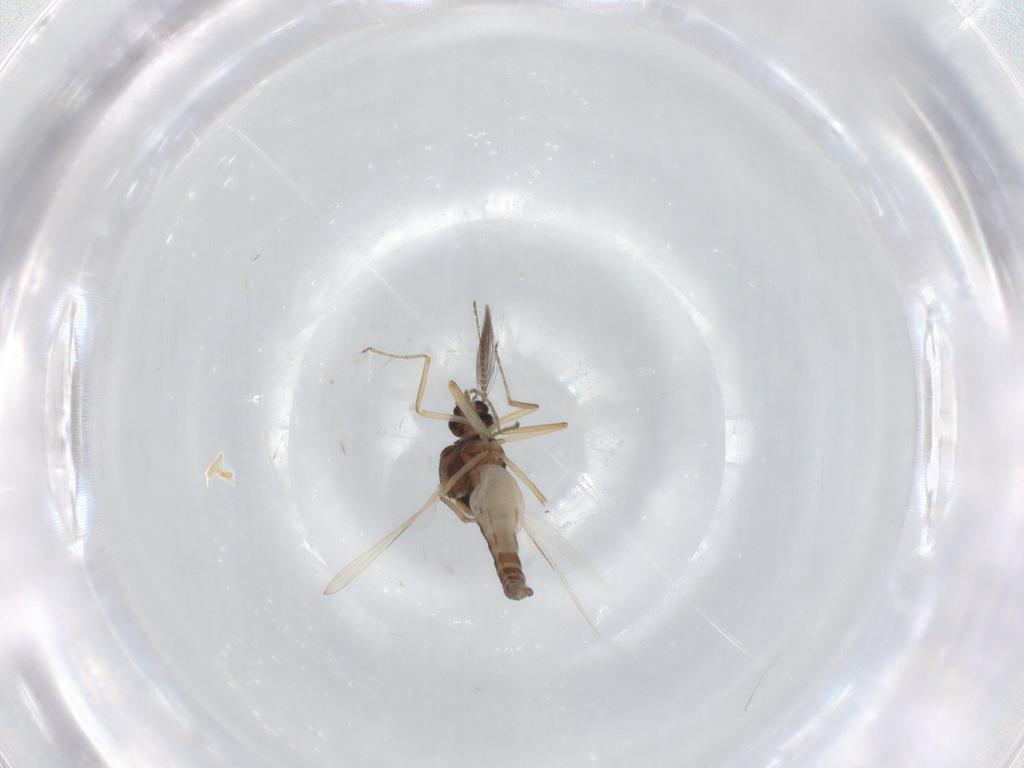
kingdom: Animalia
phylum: Arthropoda
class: Insecta
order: Diptera
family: Ceratopogonidae
